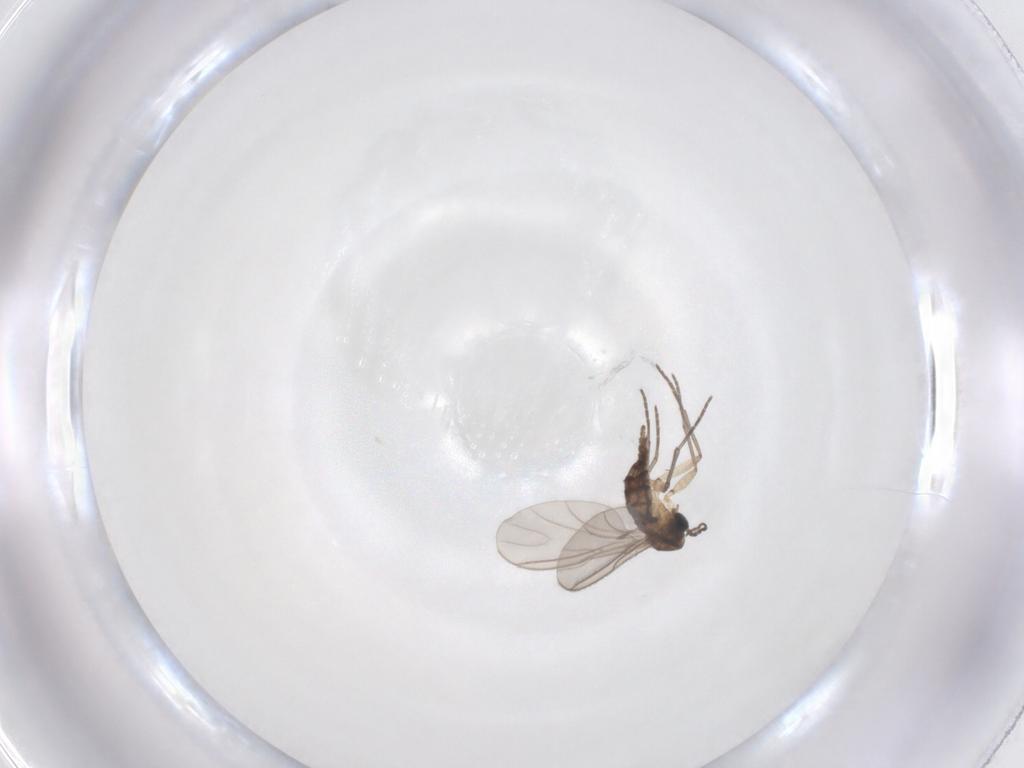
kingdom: Animalia
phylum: Arthropoda
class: Insecta
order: Diptera
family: Sciaridae
